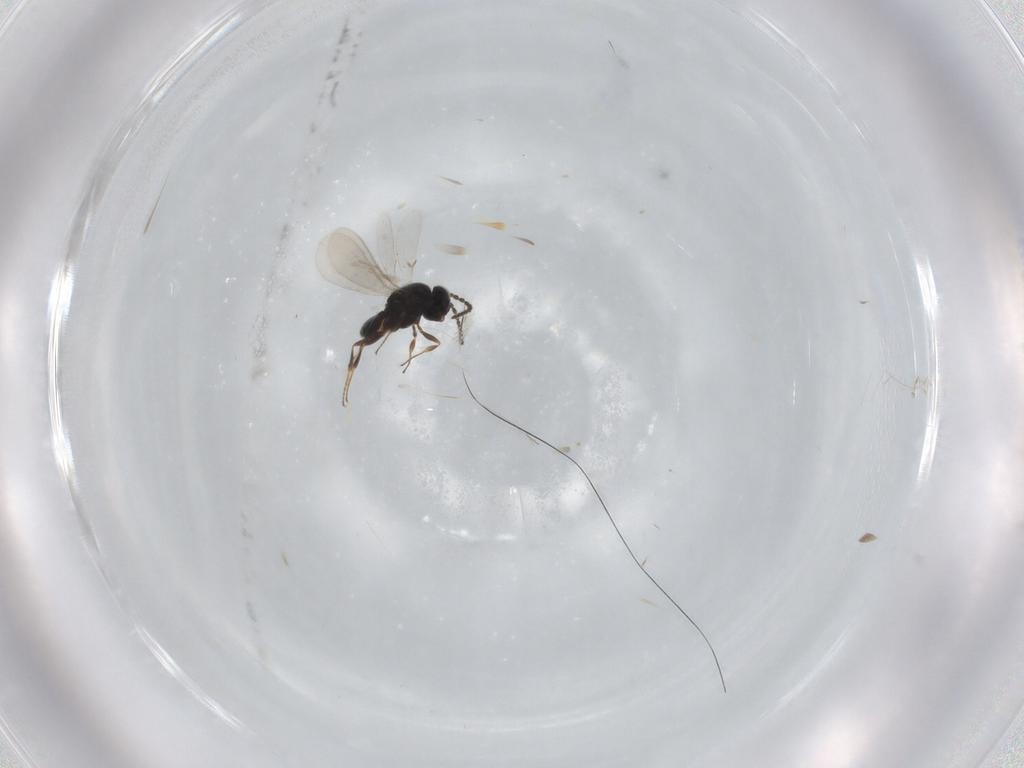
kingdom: Animalia
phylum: Arthropoda
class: Insecta
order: Hymenoptera
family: Scelionidae
